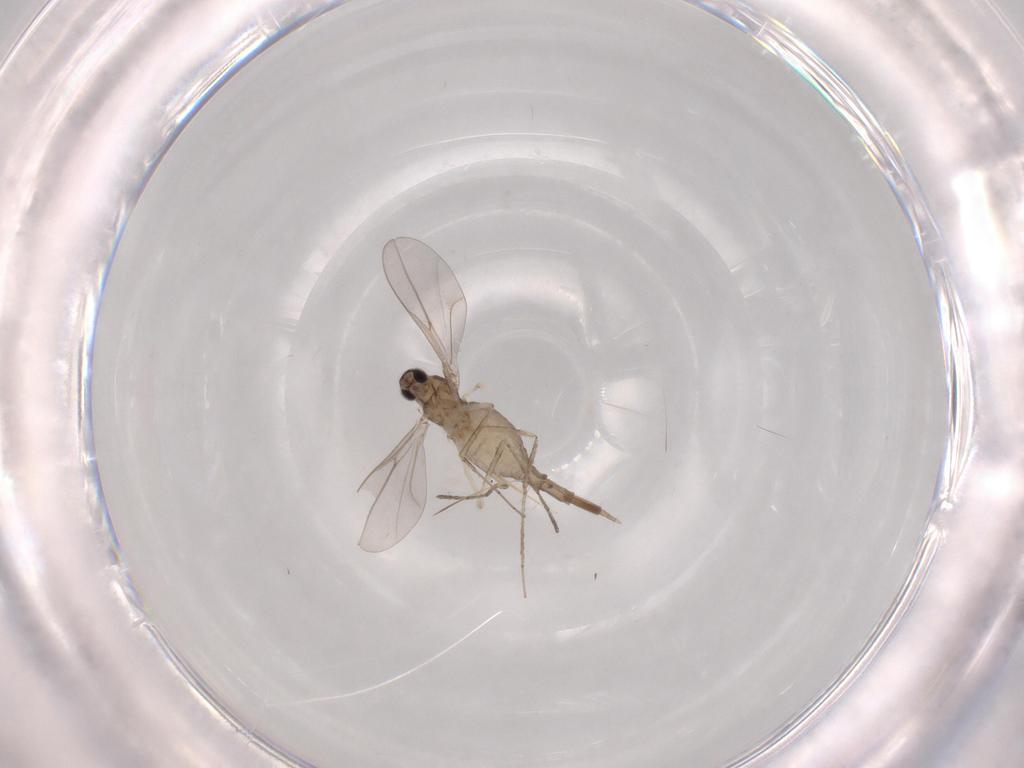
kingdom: Animalia
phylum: Arthropoda
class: Insecta
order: Diptera
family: Cecidomyiidae
